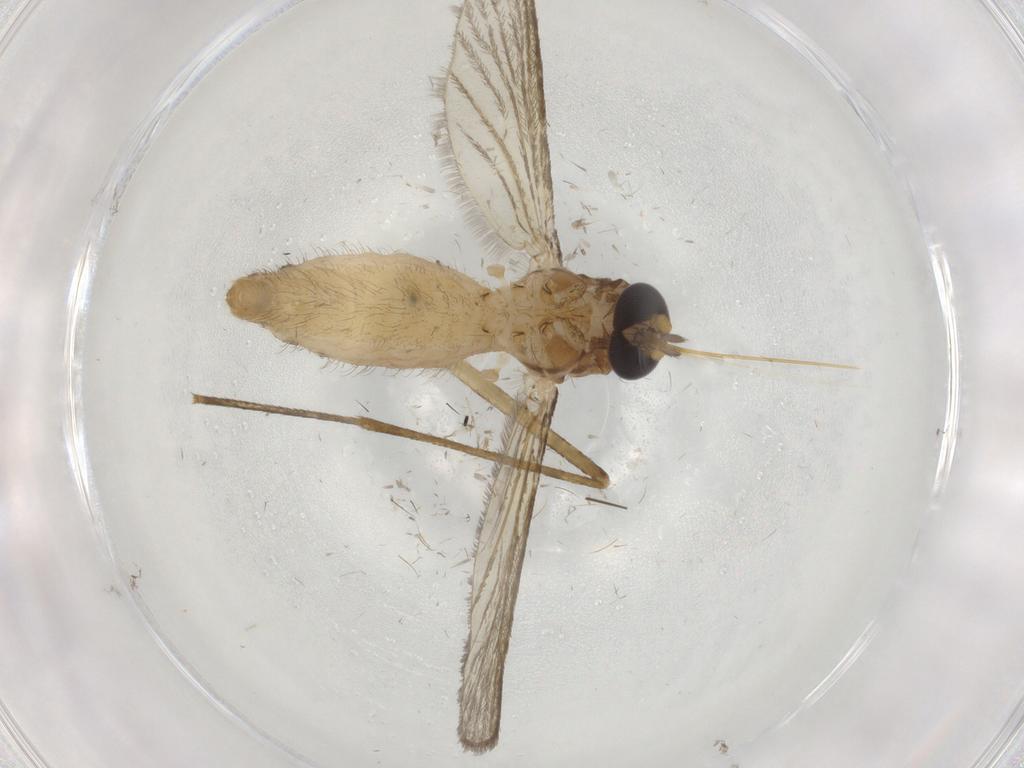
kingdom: Animalia
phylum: Arthropoda
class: Insecta
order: Diptera
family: Culicidae
